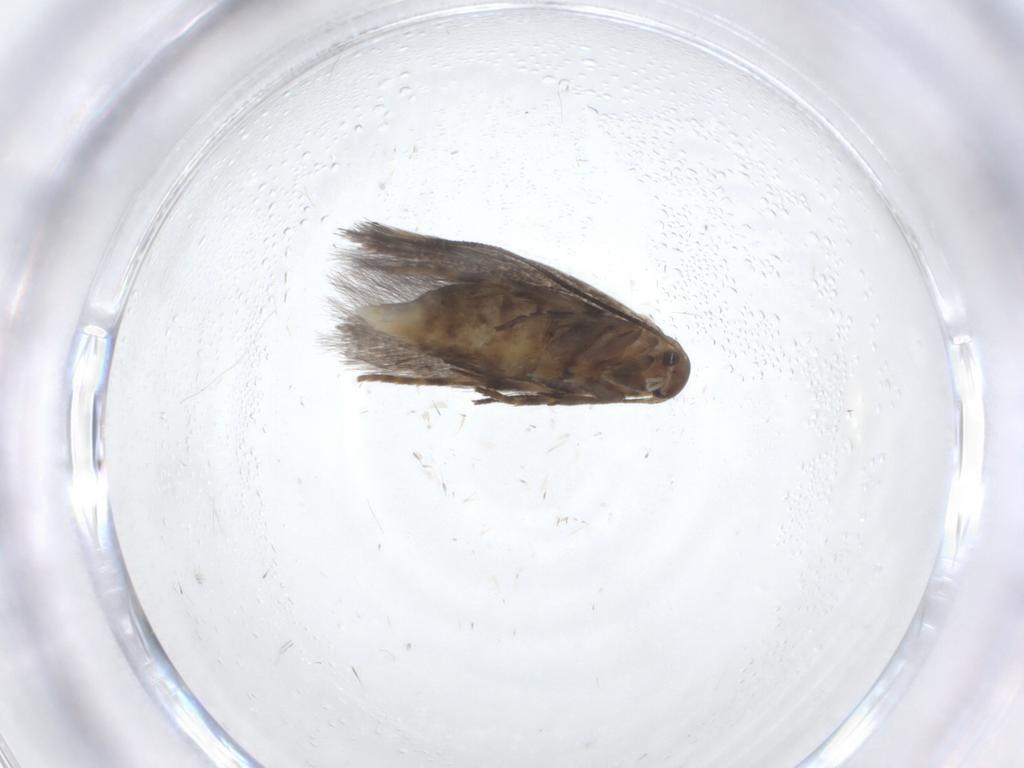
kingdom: Animalia
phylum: Arthropoda
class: Insecta
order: Lepidoptera
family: Elachistidae
